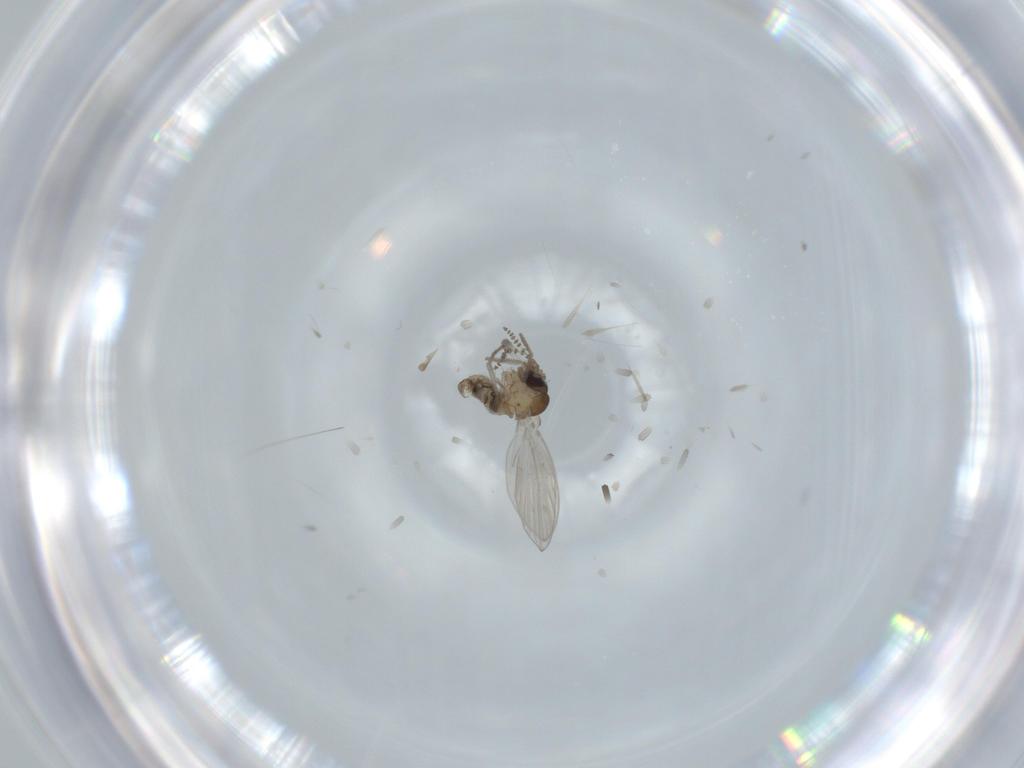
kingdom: Animalia
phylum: Arthropoda
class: Insecta
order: Diptera
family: Psychodidae
